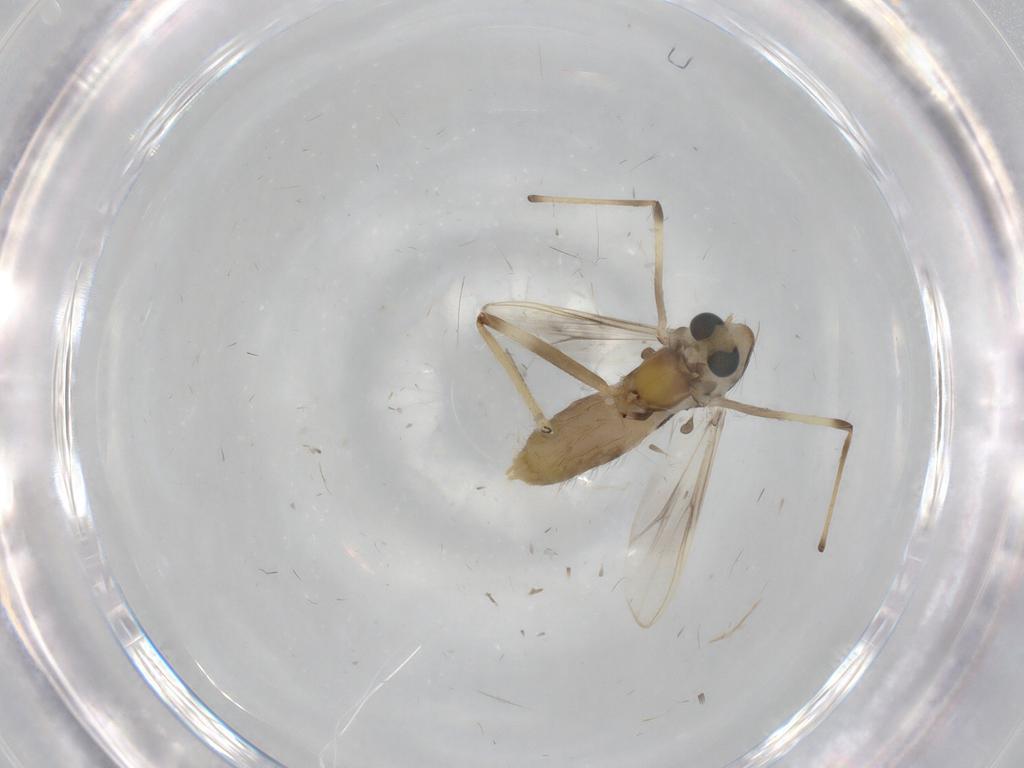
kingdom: Animalia
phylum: Arthropoda
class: Insecta
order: Diptera
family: Chironomidae
